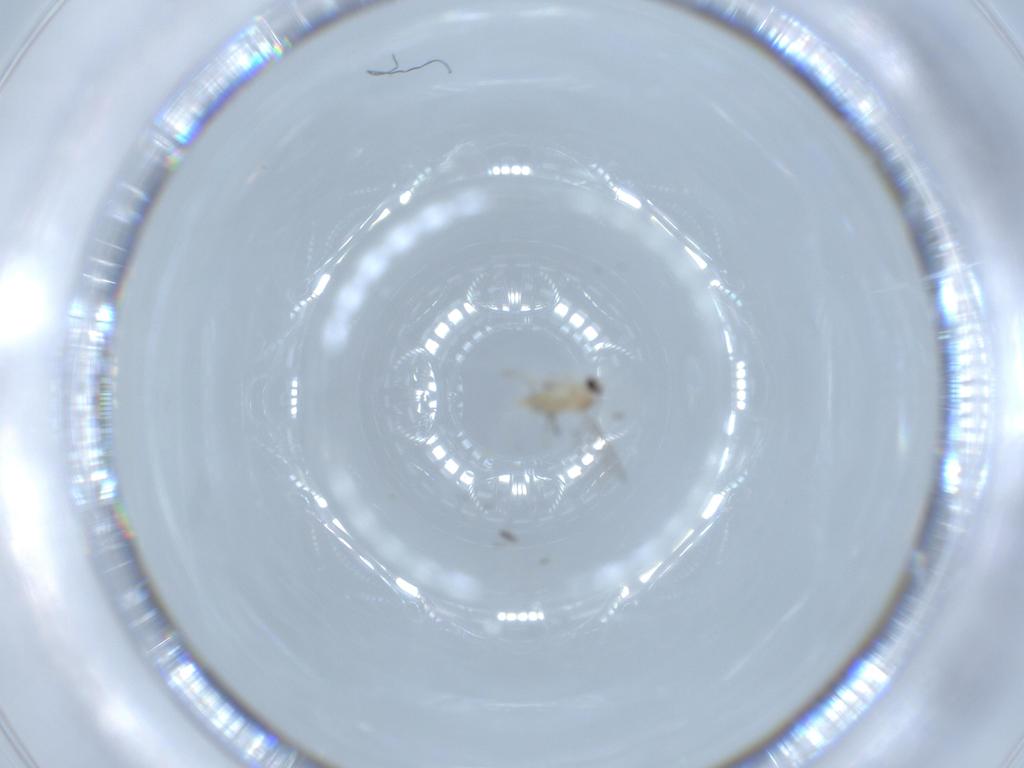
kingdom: Animalia
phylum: Arthropoda
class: Insecta
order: Diptera
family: Cecidomyiidae
